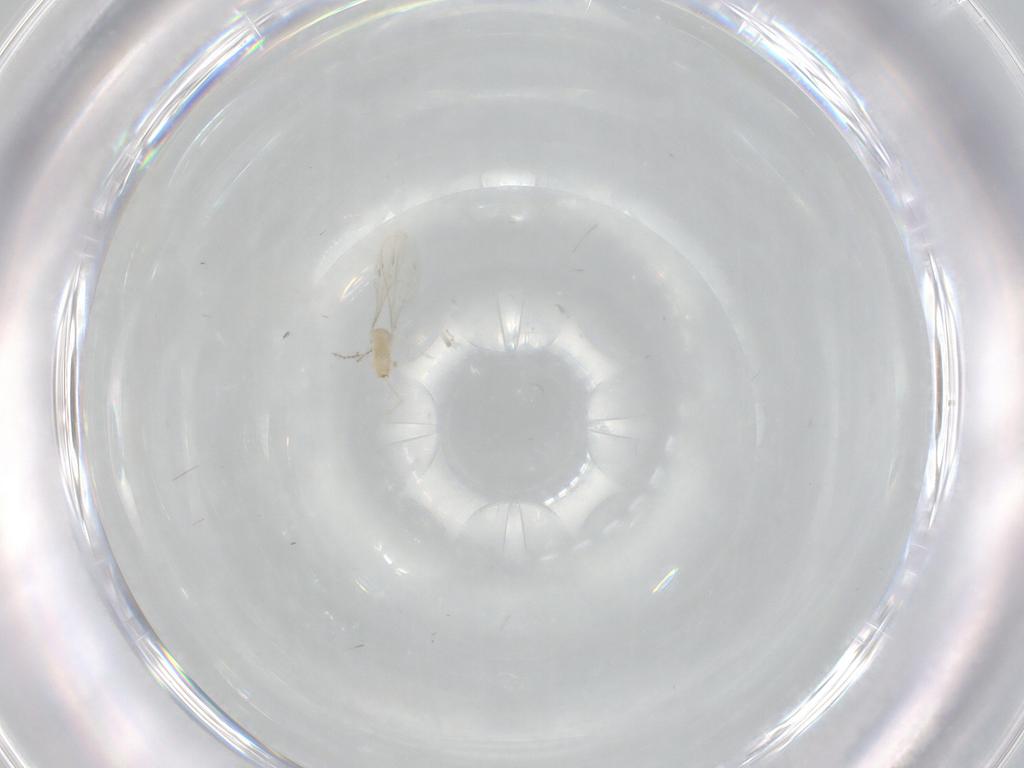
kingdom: Animalia
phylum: Arthropoda
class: Insecta
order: Diptera
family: Cecidomyiidae
